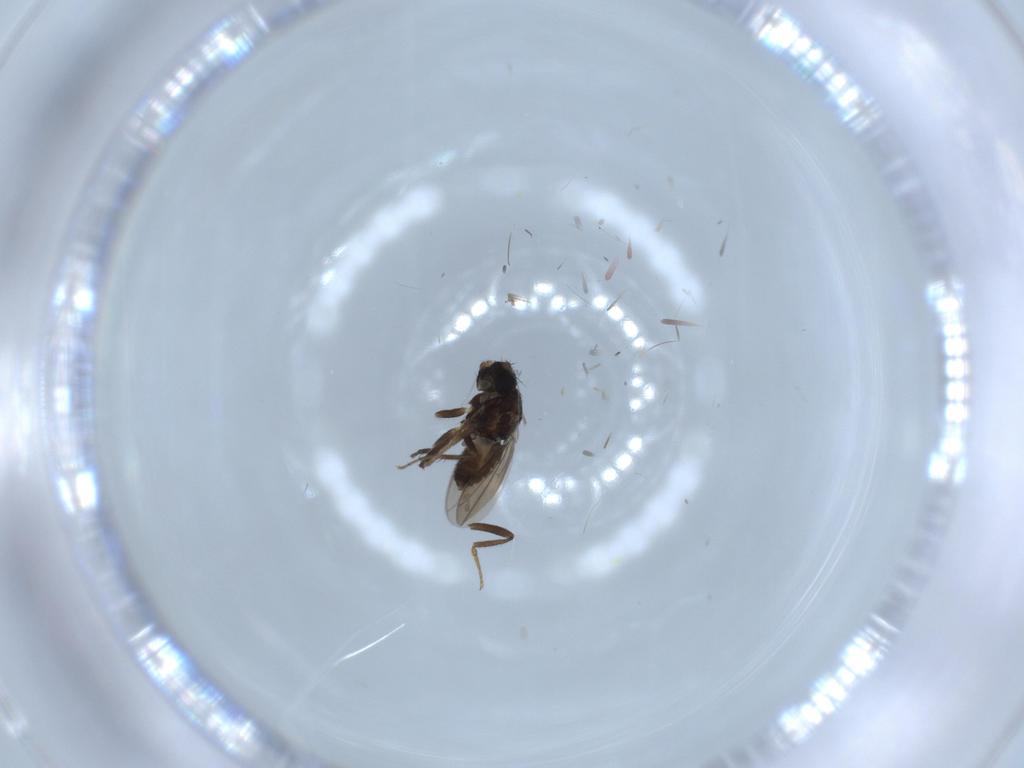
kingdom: Animalia
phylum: Arthropoda
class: Insecta
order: Diptera
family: Sphaeroceridae
